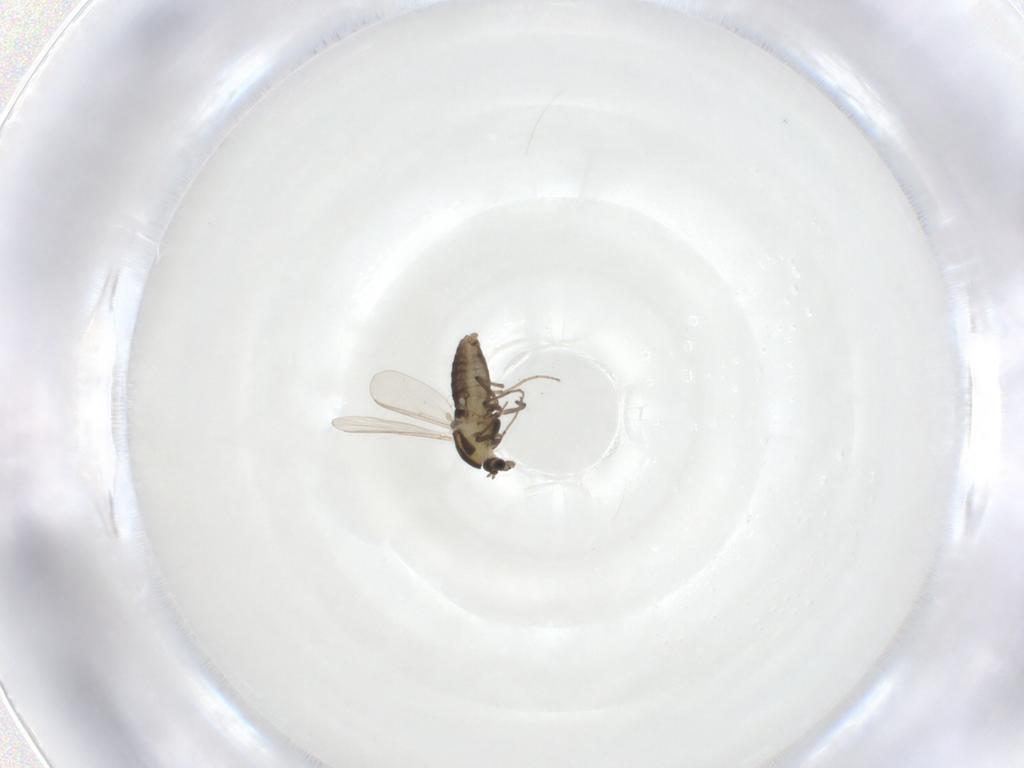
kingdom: Animalia
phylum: Arthropoda
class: Insecta
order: Diptera
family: Chironomidae
